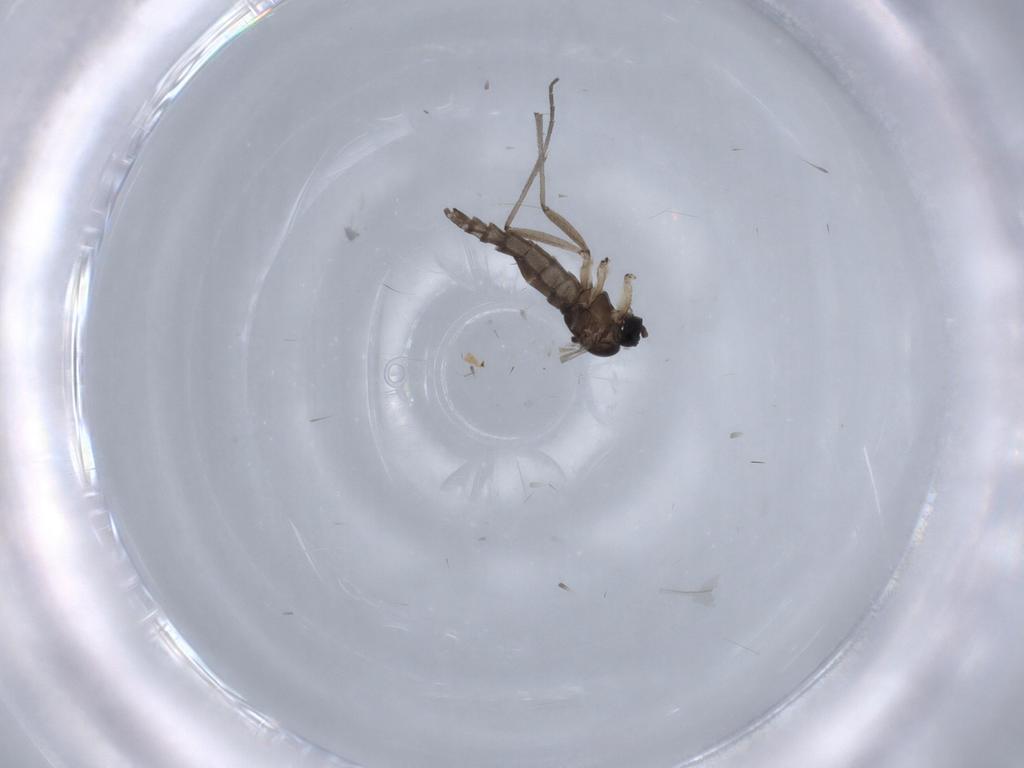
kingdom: Animalia
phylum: Arthropoda
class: Insecta
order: Diptera
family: Sciaridae
